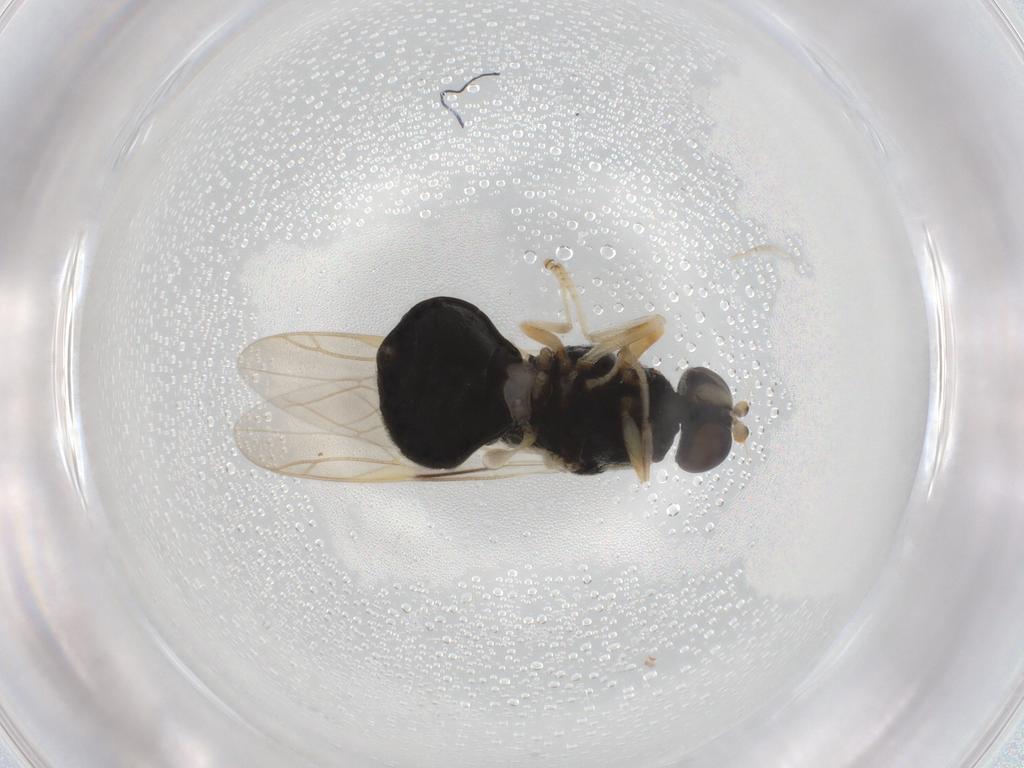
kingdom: Animalia
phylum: Arthropoda
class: Insecta
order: Diptera
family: Stratiomyidae
